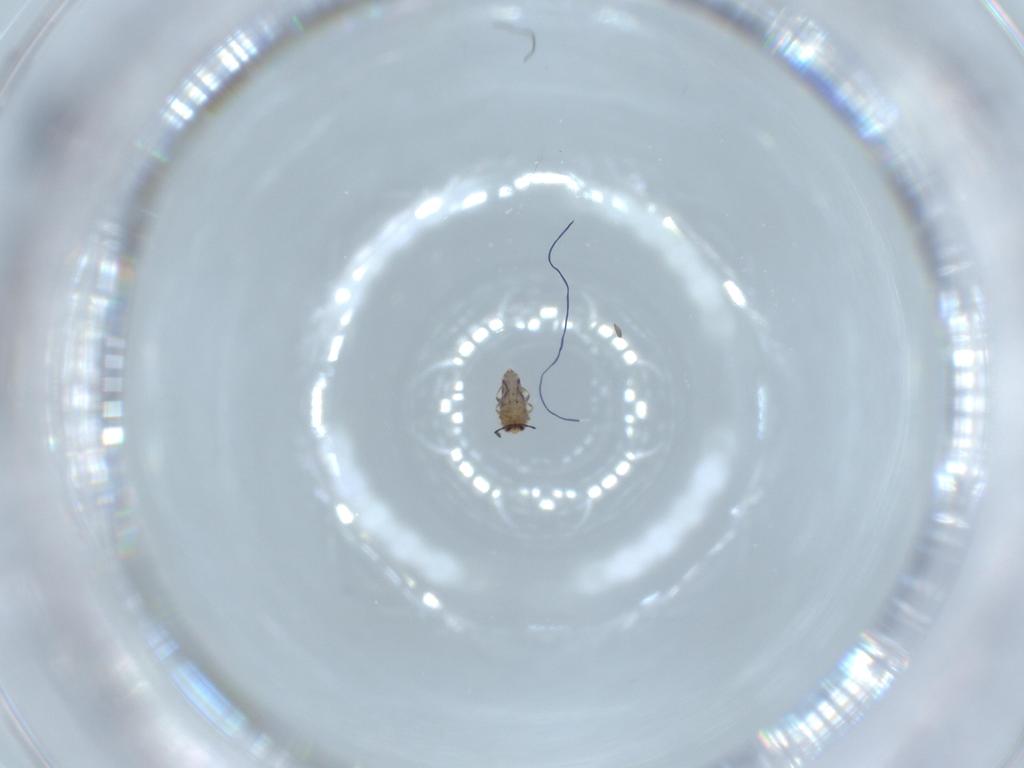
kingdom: Animalia
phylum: Arthropoda
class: Collembola
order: Entomobryomorpha
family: Entomobryidae
